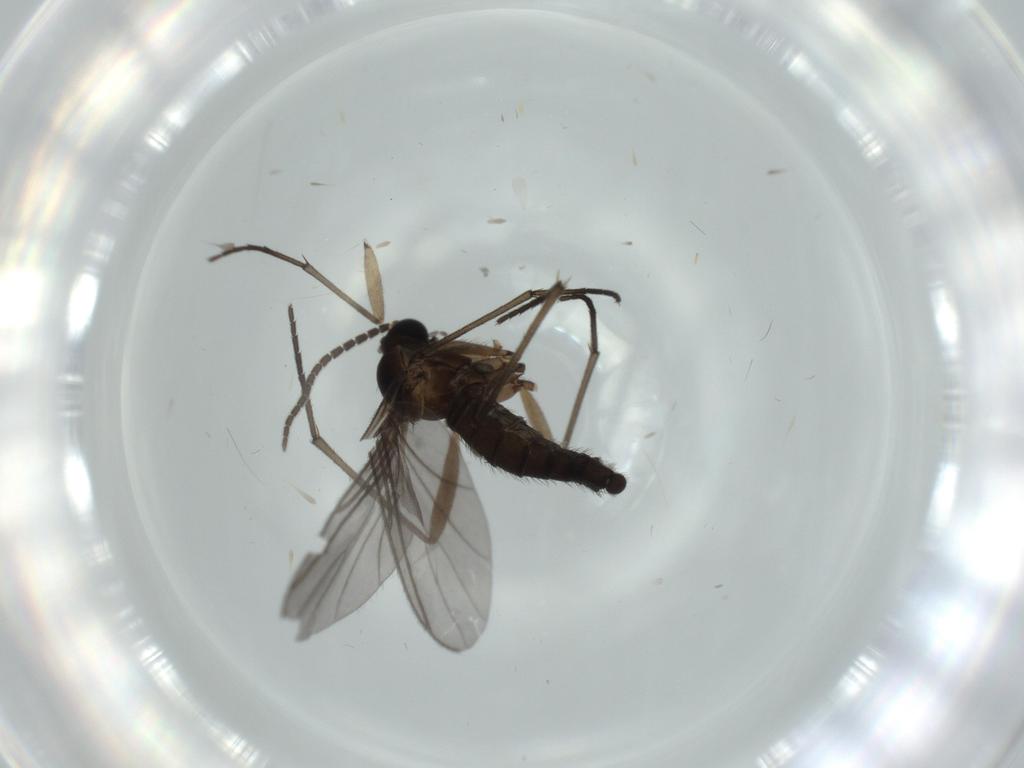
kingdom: Animalia
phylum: Arthropoda
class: Insecta
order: Diptera
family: Sciaridae
